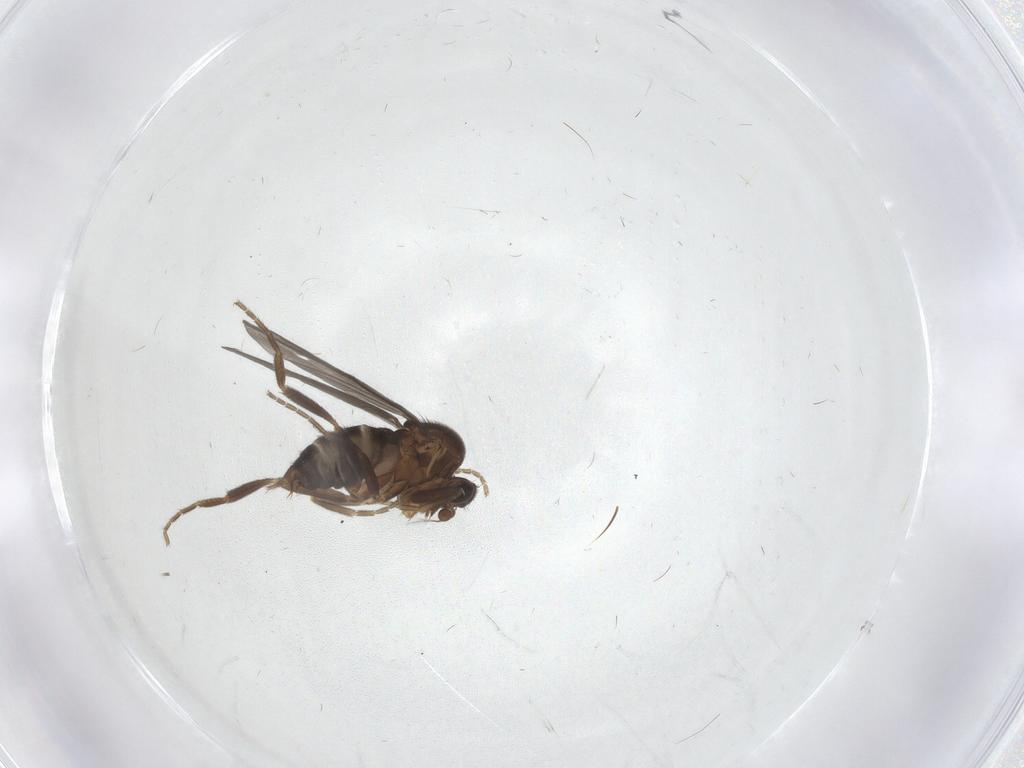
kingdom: Animalia
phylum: Arthropoda
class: Insecta
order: Diptera
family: Phoridae
